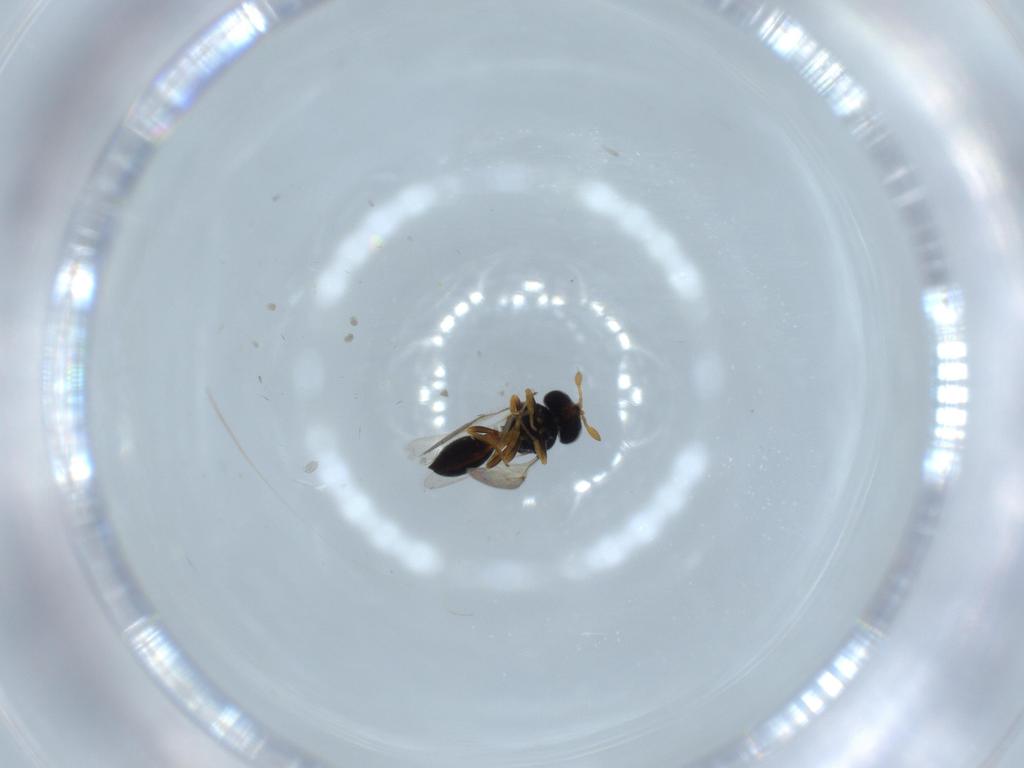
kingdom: Animalia
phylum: Arthropoda
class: Insecta
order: Hymenoptera
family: Scelionidae
